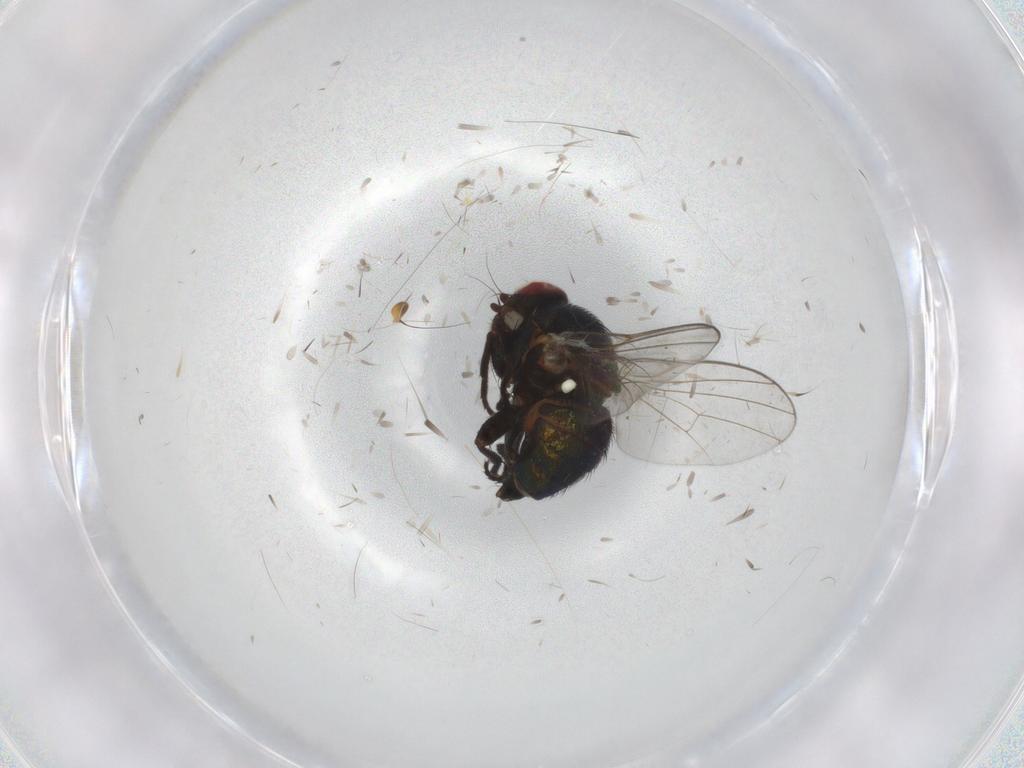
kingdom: Animalia
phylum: Arthropoda
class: Insecta
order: Diptera
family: Agromyzidae
